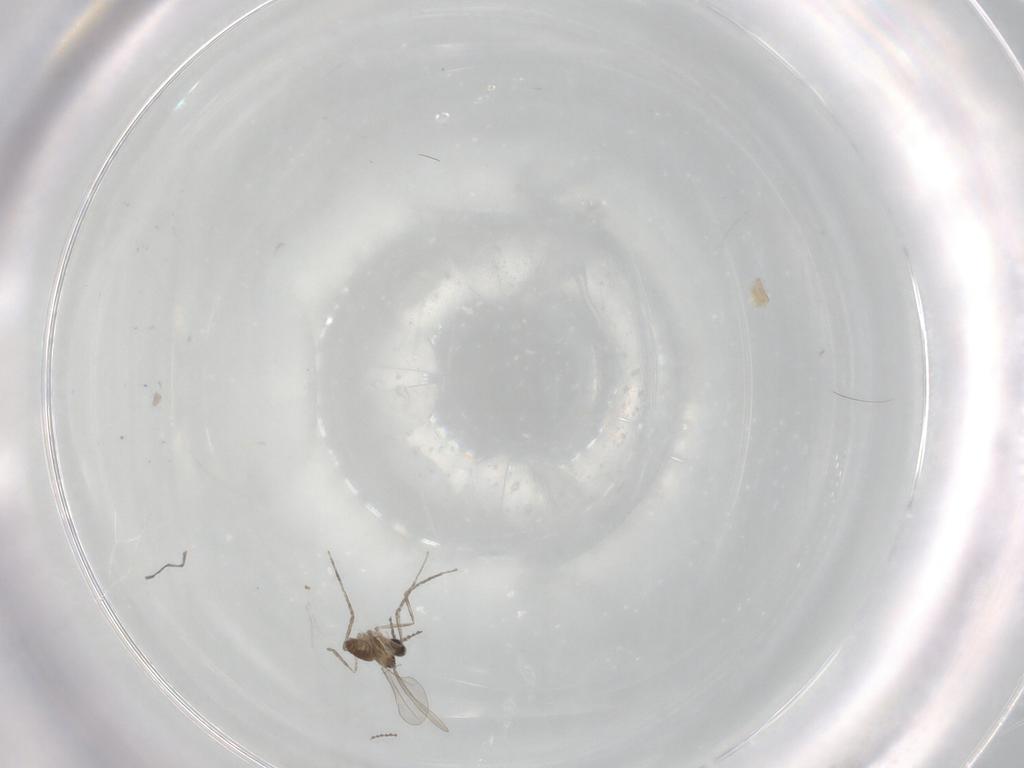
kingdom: Animalia
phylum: Arthropoda
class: Insecta
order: Diptera
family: Cecidomyiidae
